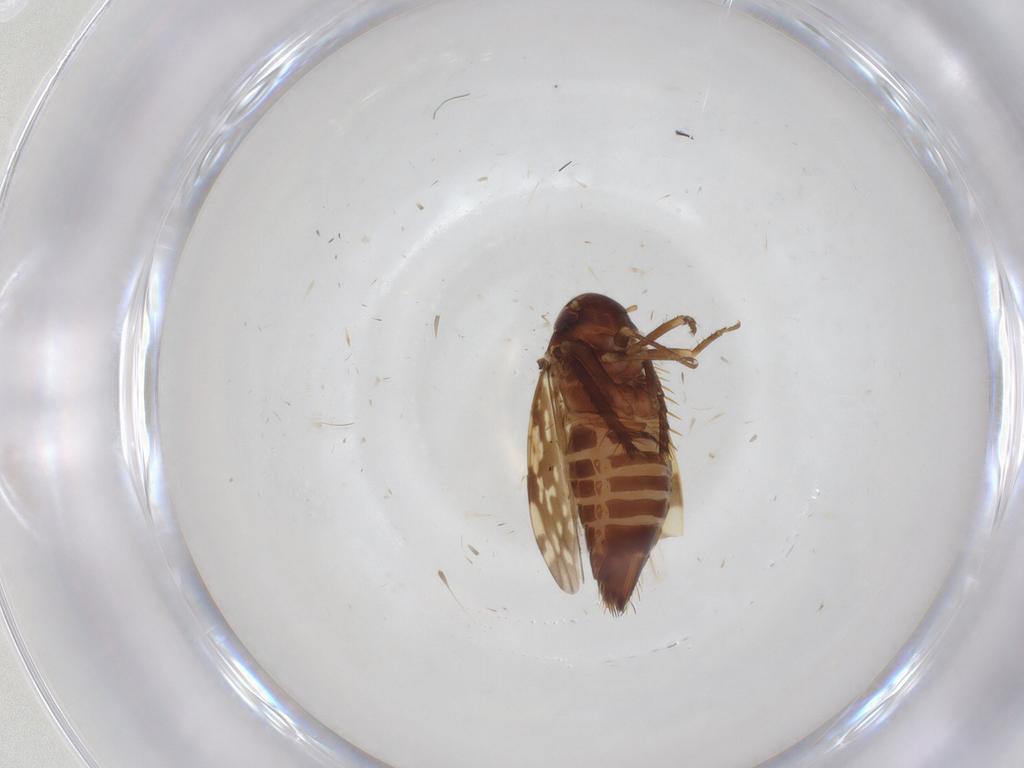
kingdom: Animalia
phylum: Arthropoda
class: Insecta
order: Hemiptera
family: Cicadellidae
